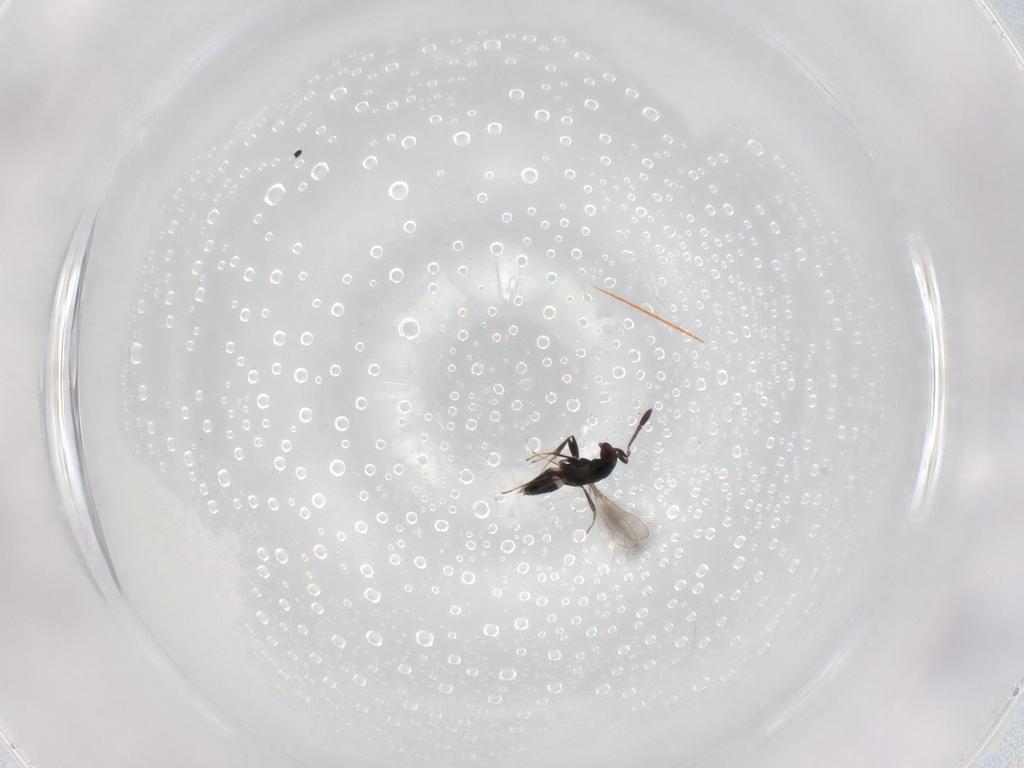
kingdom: Animalia
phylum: Arthropoda
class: Insecta
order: Hymenoptera
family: Mymaridae
